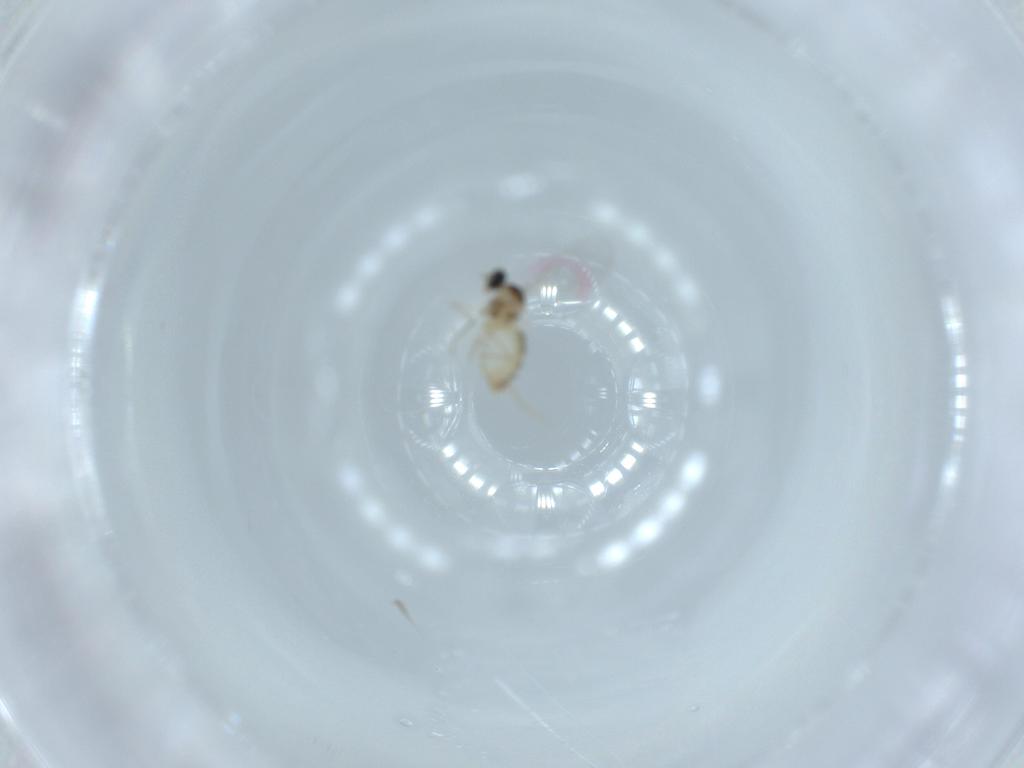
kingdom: Animalia
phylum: Arthropoda
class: Insecta
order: Diptera
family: Cecidomyiidae
